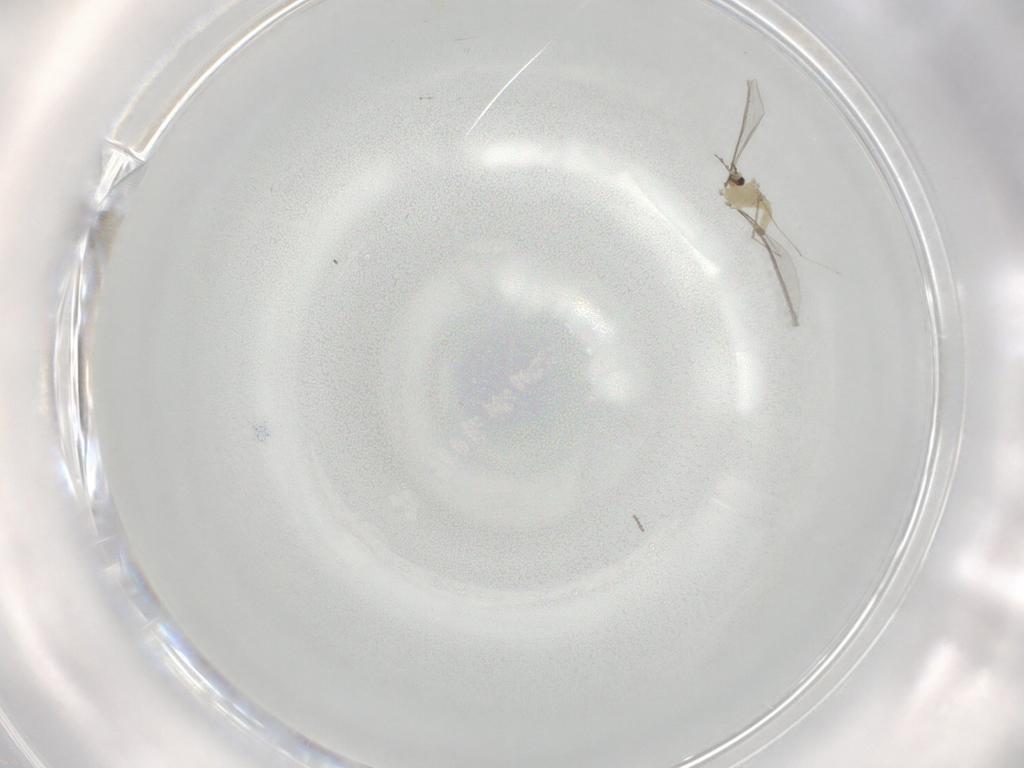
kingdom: Animalia
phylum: Arthropoda
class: Insecta
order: Diptera
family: Cecidomyiidae
